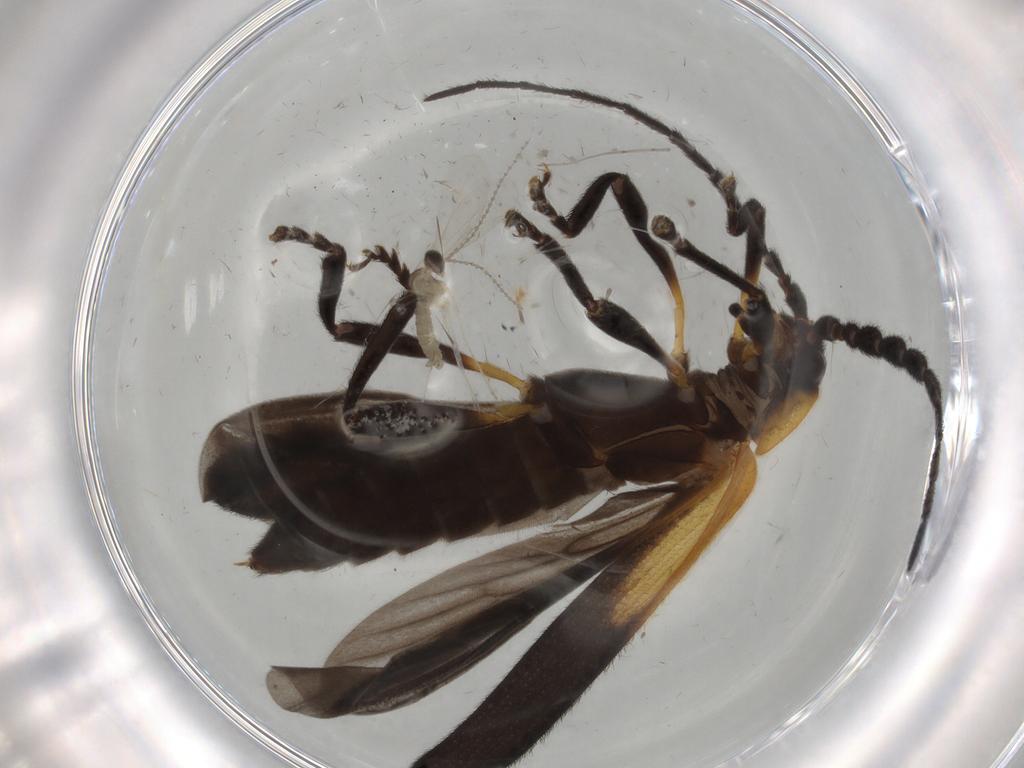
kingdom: Animalia
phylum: Arthropoda
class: Insecta
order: Diptera
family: Cecidomyiidae
